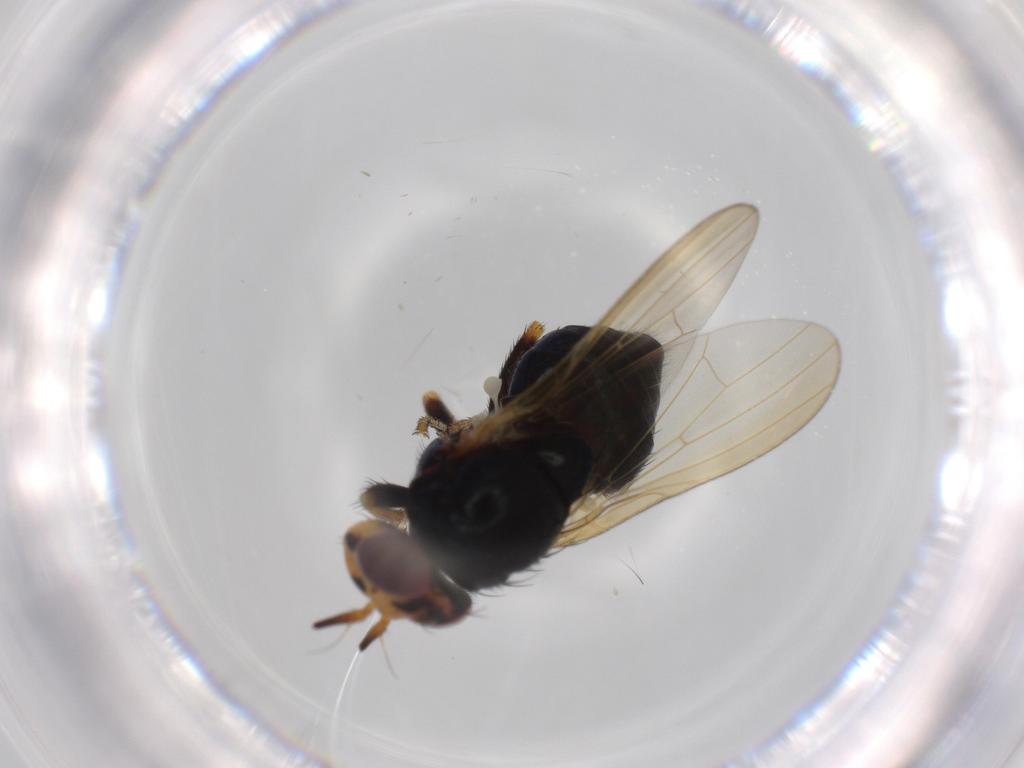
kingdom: Animalia
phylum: Arthropoda
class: Insecta
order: Diptera
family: Lauxaniidae
